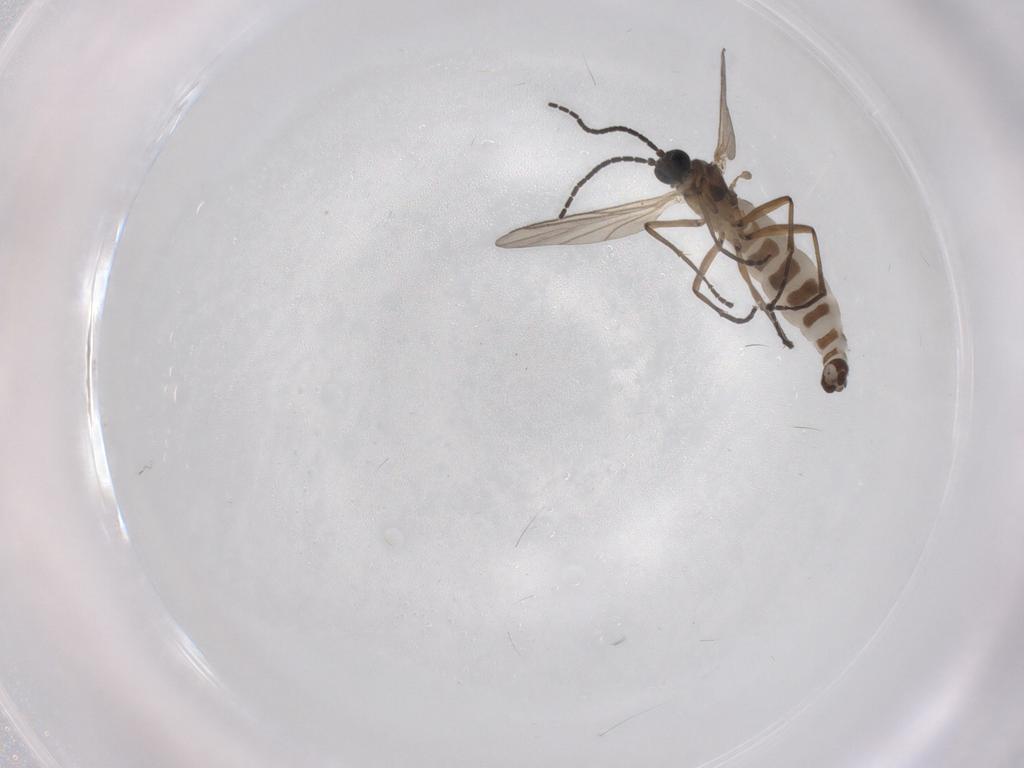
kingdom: Animalia
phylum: Arthropoda
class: Insecta
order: Diptera
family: Sciaridae
